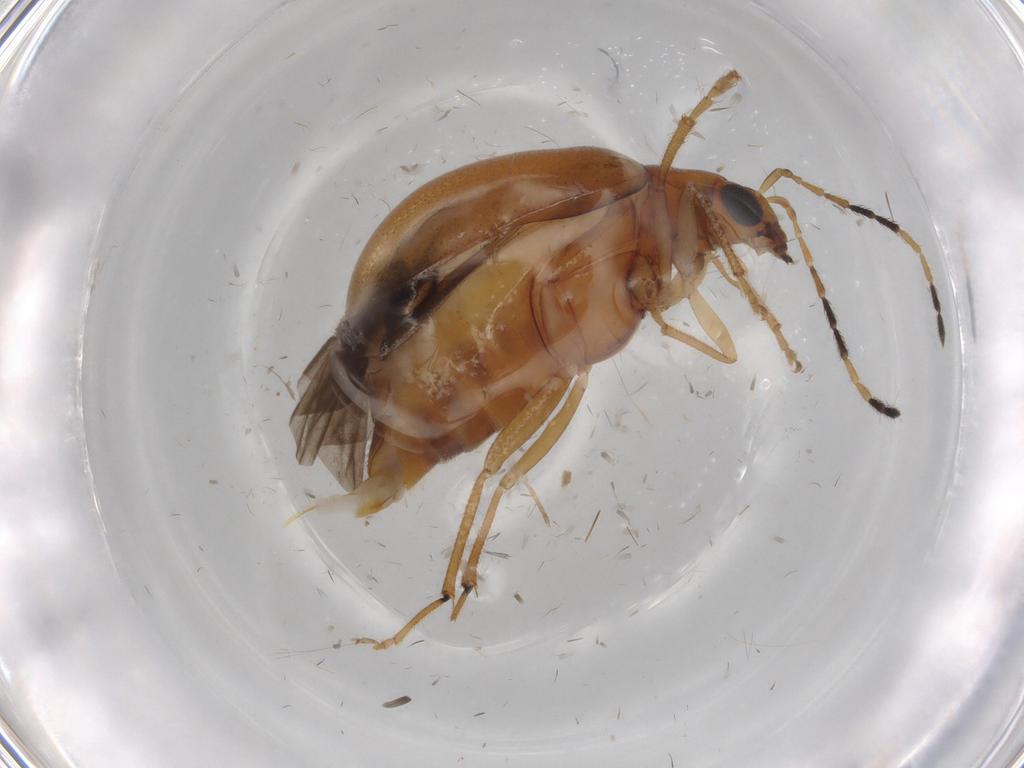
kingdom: Animalia
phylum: Arthropoda
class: Insecta
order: Coleoptera
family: Chrysomelidae
